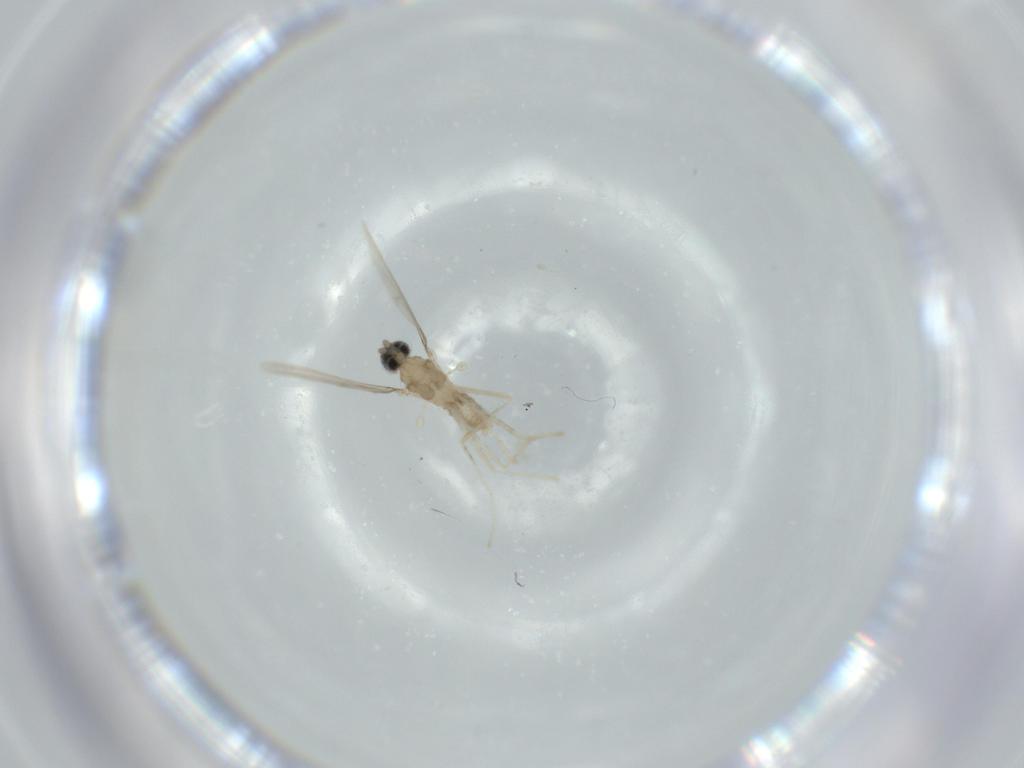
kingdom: Animalia
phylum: Arthropoda
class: Insecta
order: Diptera
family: Cecidomyiidae
